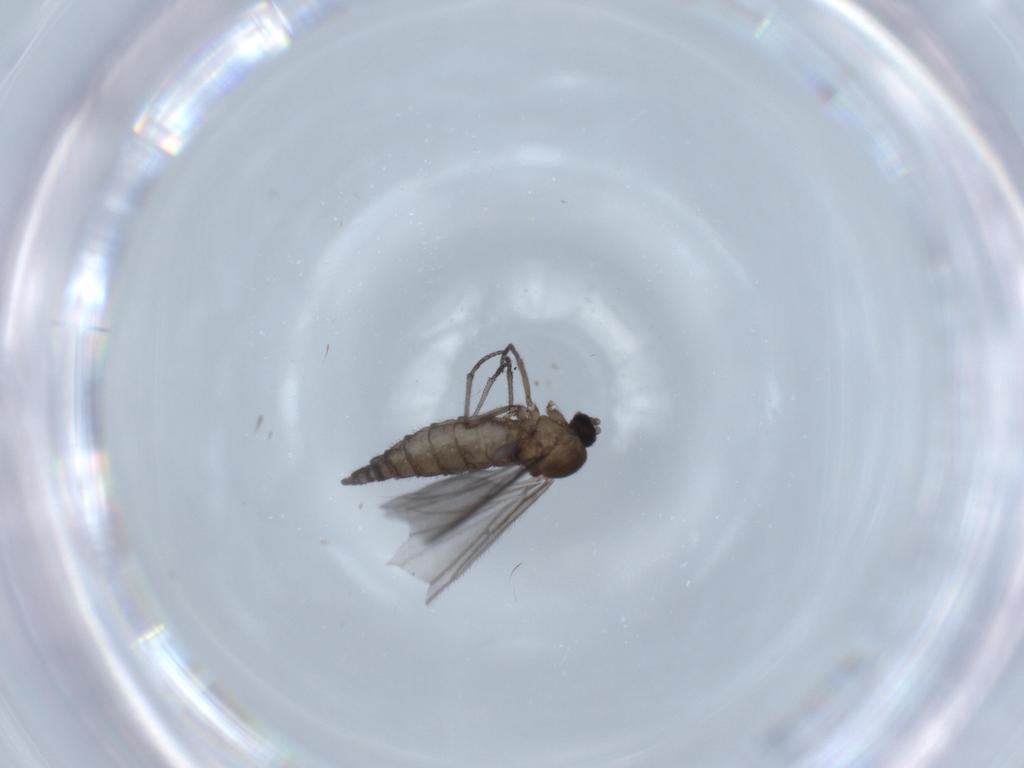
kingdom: Animalia
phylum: Arthropoda
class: Insecta
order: Diptera
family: Sciaridae
